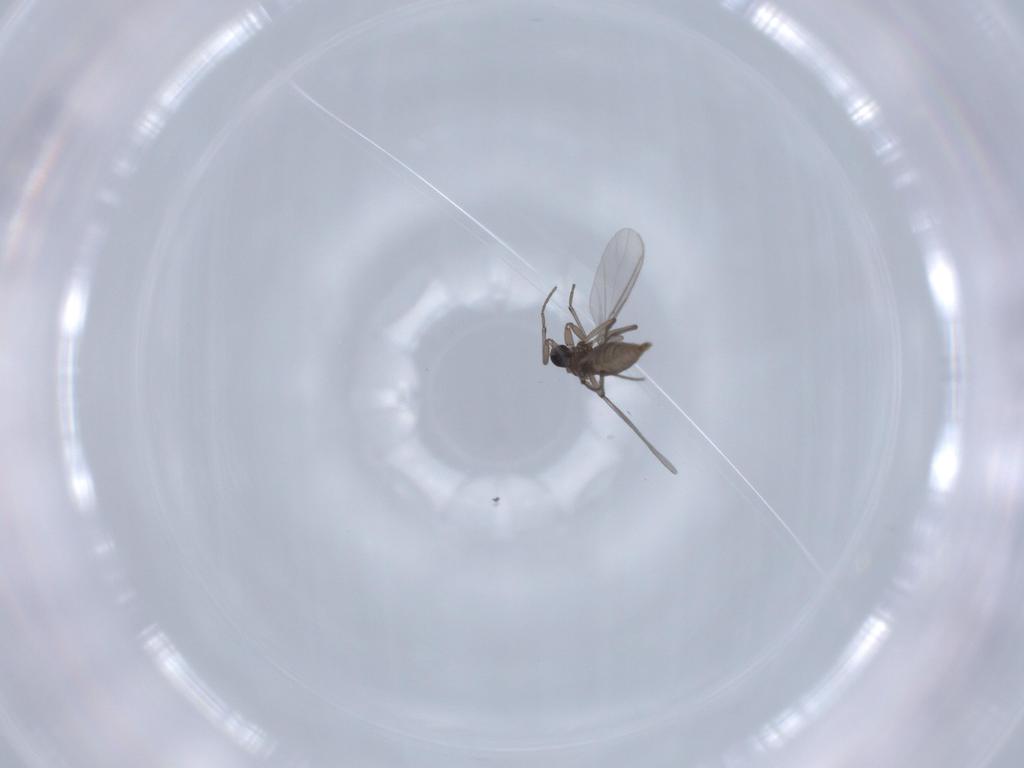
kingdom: Animalia
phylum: Arthropoda
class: Insecta
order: Diptera
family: Sciaridae
